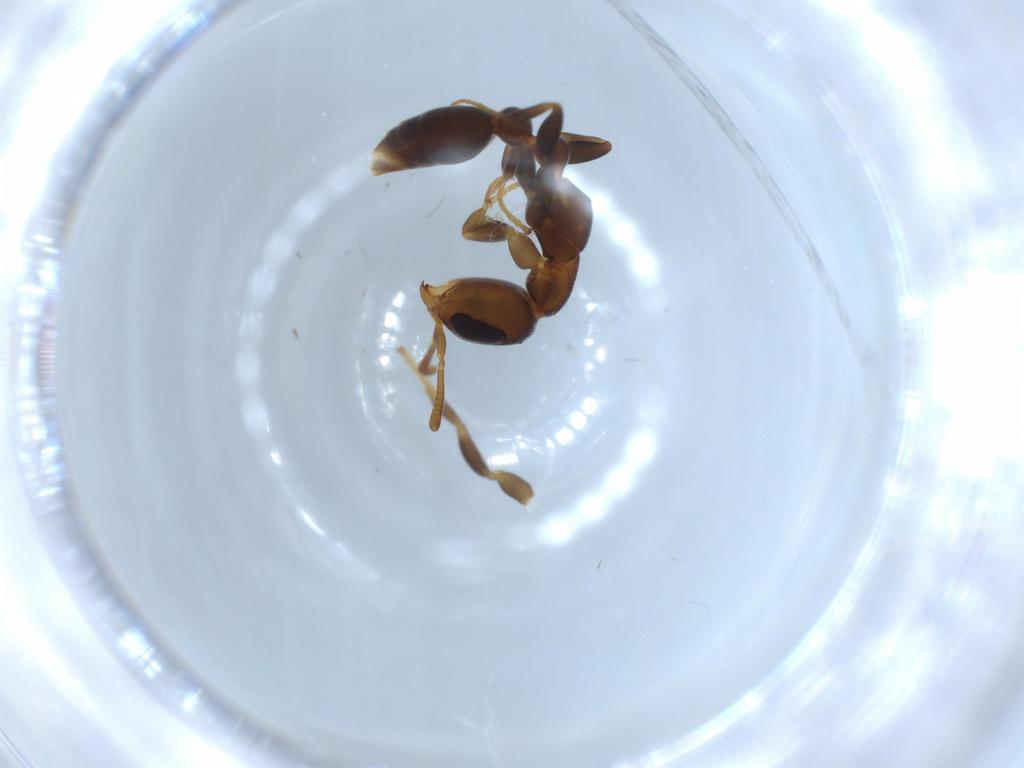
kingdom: Animalia
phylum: Arthropoda
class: Insecta
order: Hymenoptera
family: Formicidae
